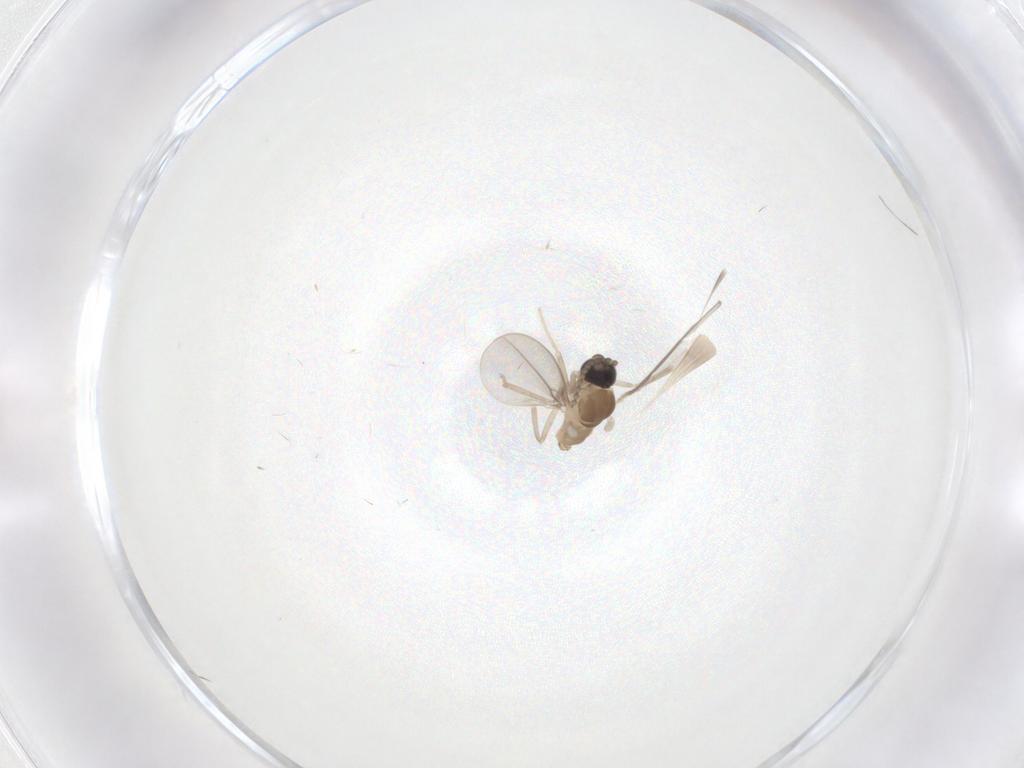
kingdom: Animalia
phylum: Arthropoda
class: Insecta
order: Diptera
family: Cecidomyiidae
